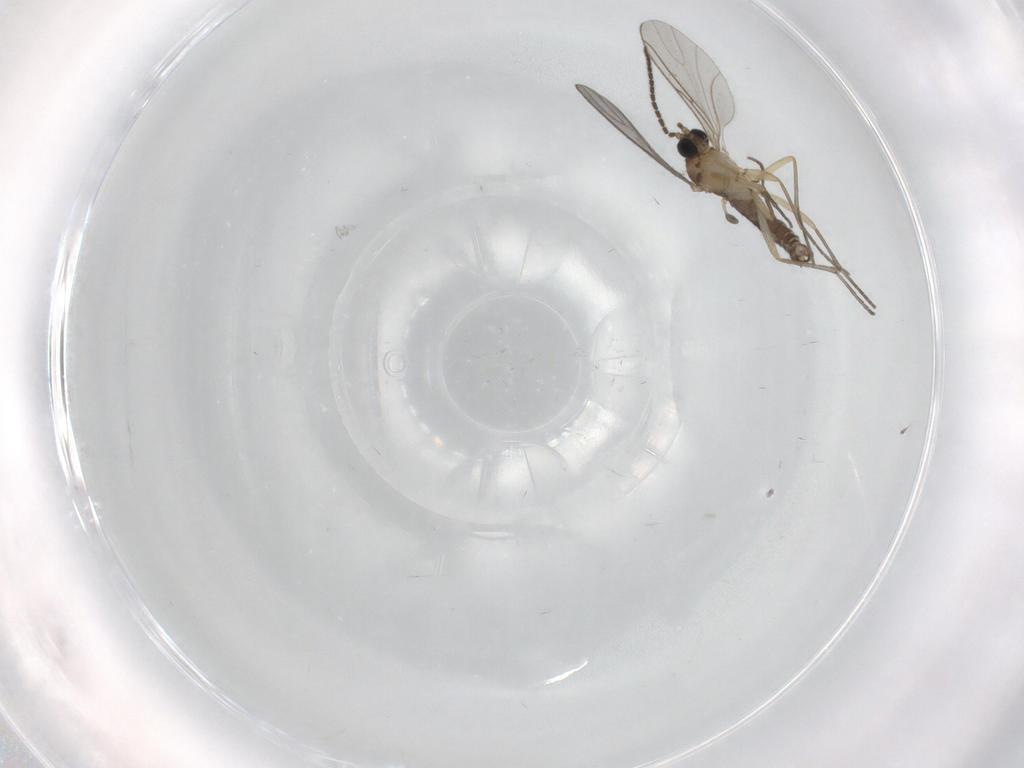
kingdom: Animalia
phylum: Arthropoda
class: Insecta
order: Diptera
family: Sciaridae
